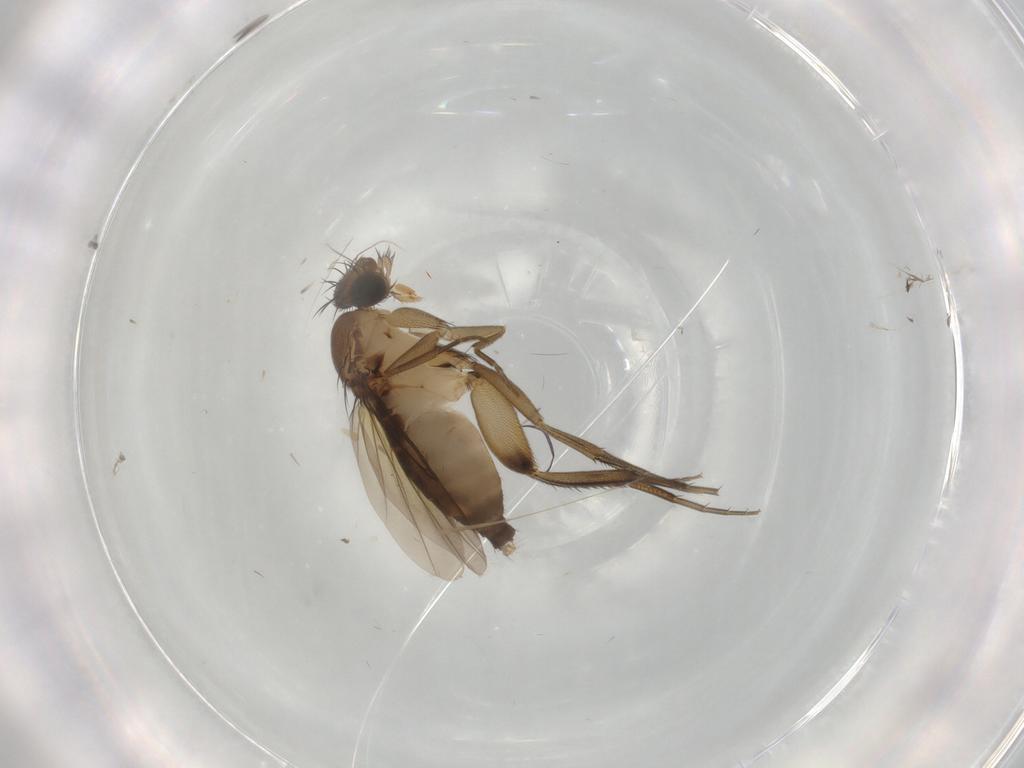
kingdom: Animalia
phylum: Arthropoda
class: Insecta
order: Diptera
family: Phoridae
